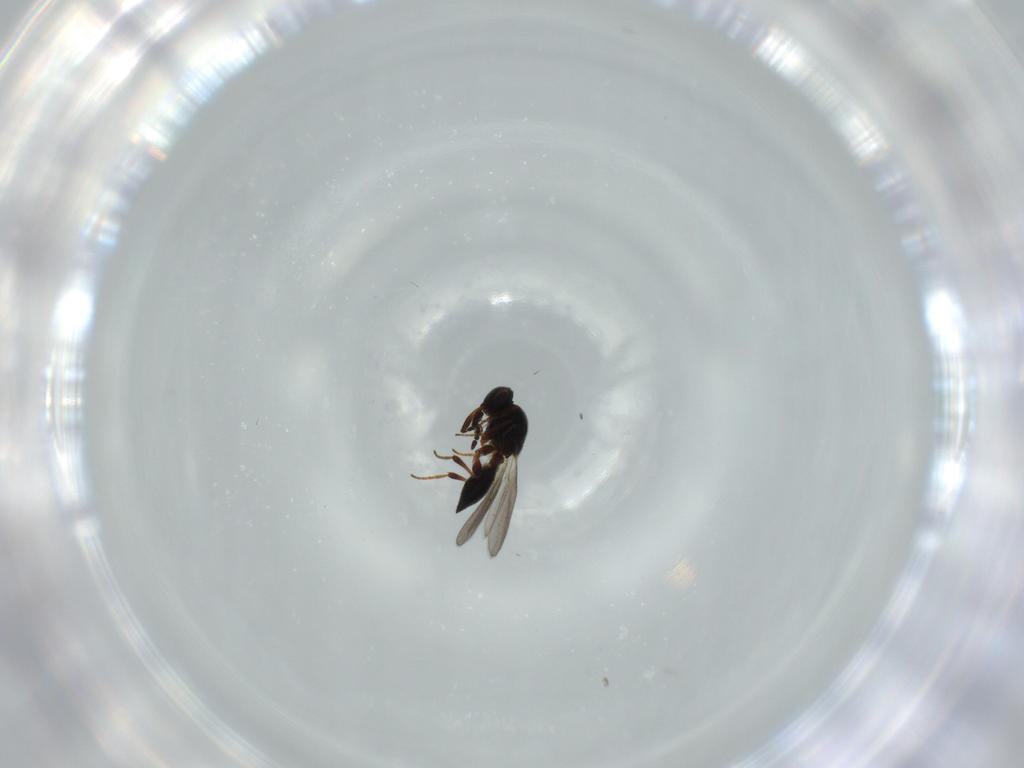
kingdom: Animalia
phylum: Arthropoda
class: Insecta
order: Hymenoptera
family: Platygastridae
